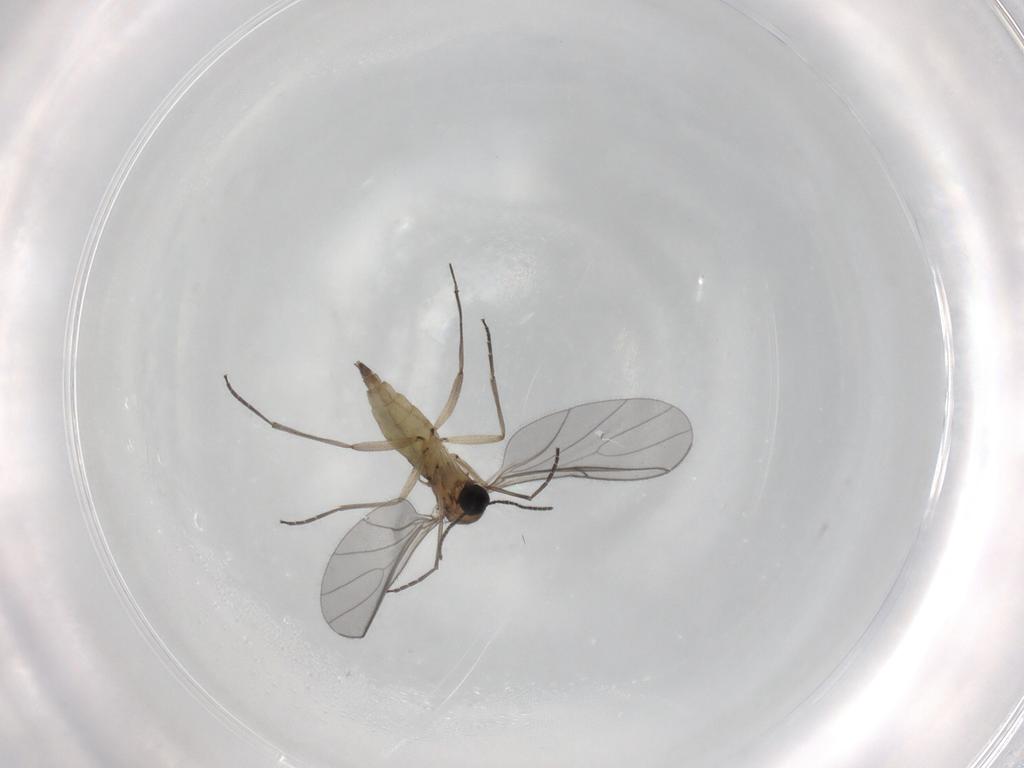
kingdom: Animalia
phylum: Arthropoda
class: Insecta
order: Diptera
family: Sciaridae
